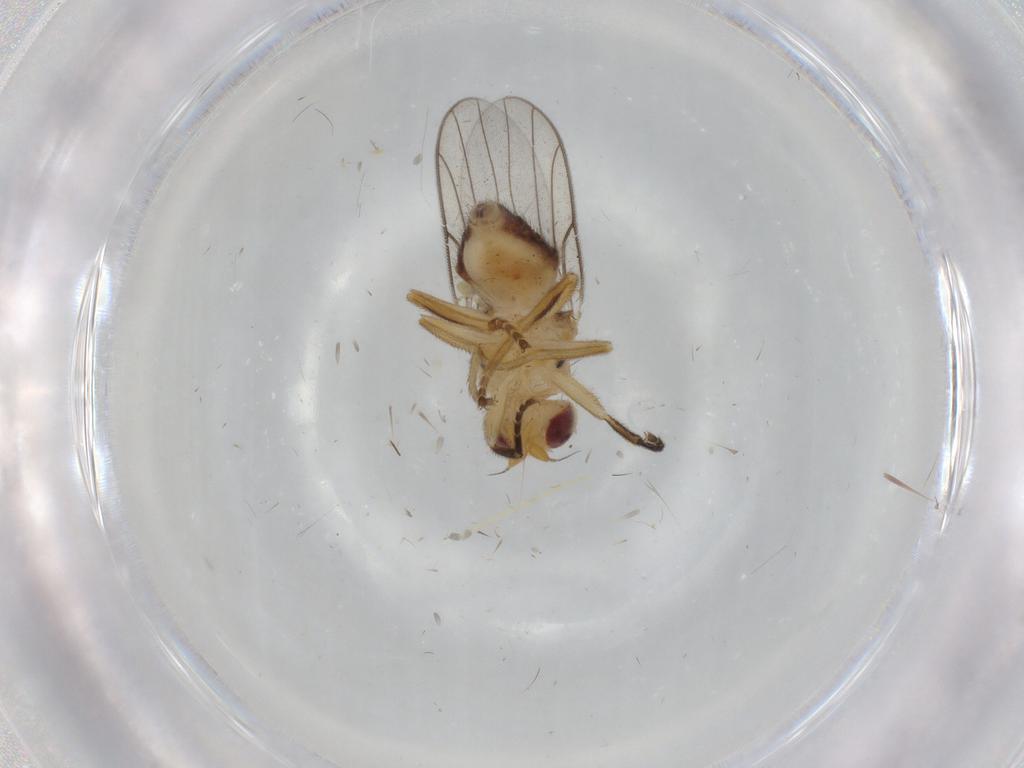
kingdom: Animalia
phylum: Arthropoda
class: Insecta
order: Diptera
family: Chloropidae
